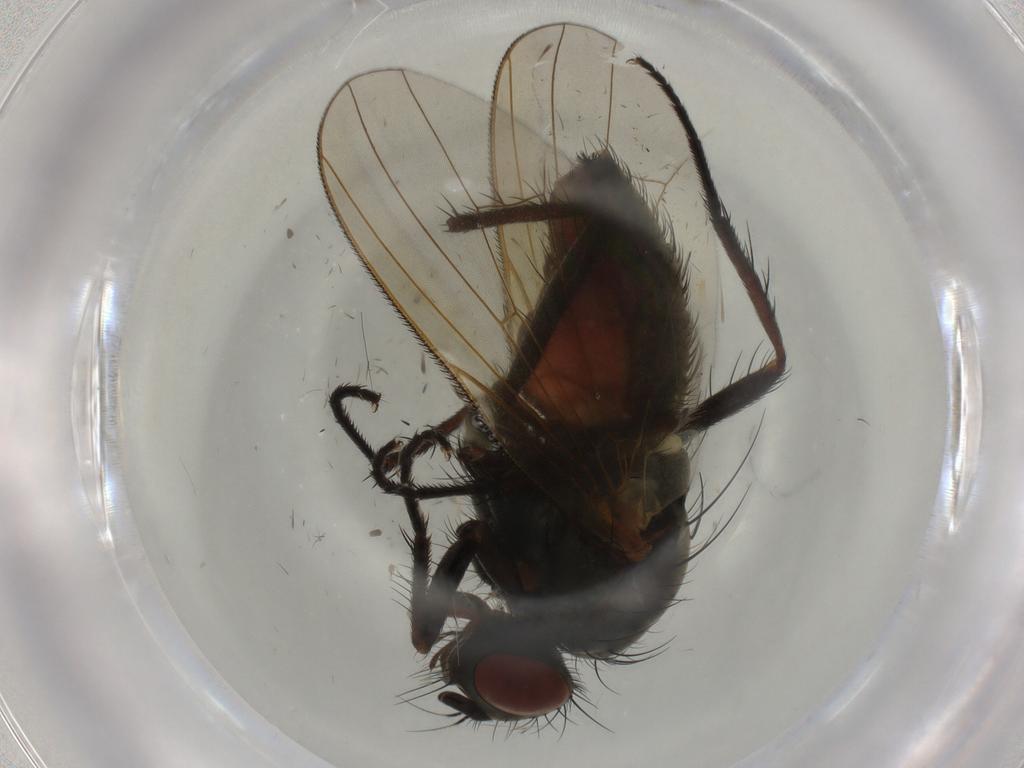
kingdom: Animalia
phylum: Arthropoda
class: Insecta
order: Diptera
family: Anthomyiidae
